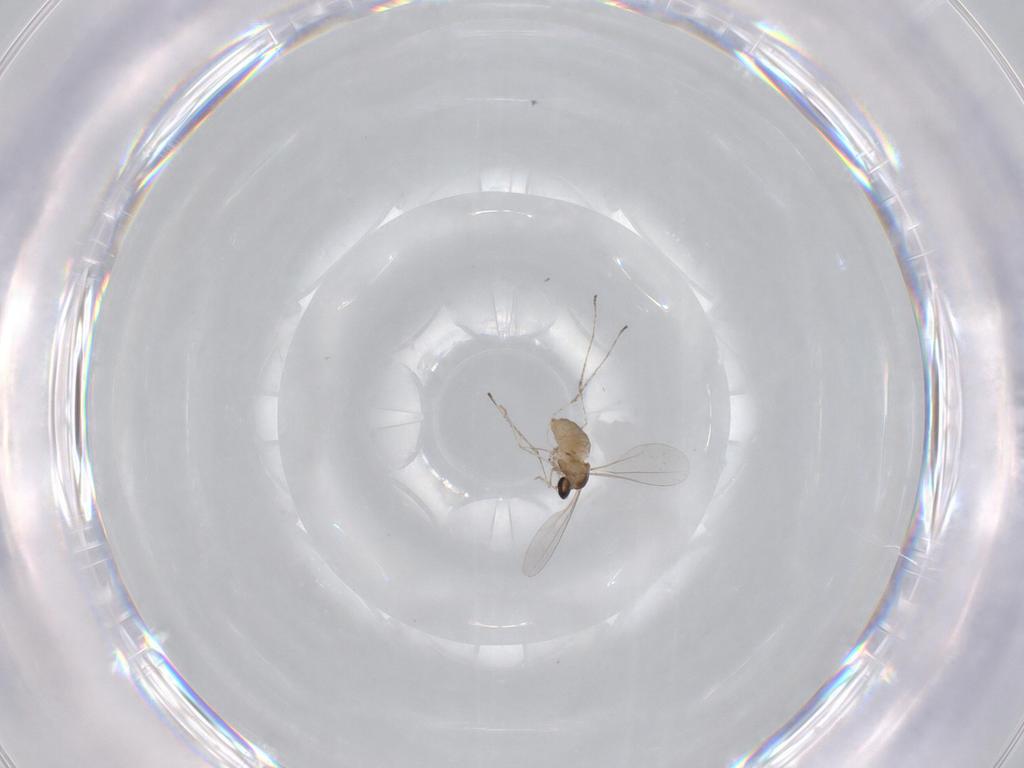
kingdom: Animalia
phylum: Arthropoda
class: Insecta
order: Diptera
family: Cecidomyiidae
